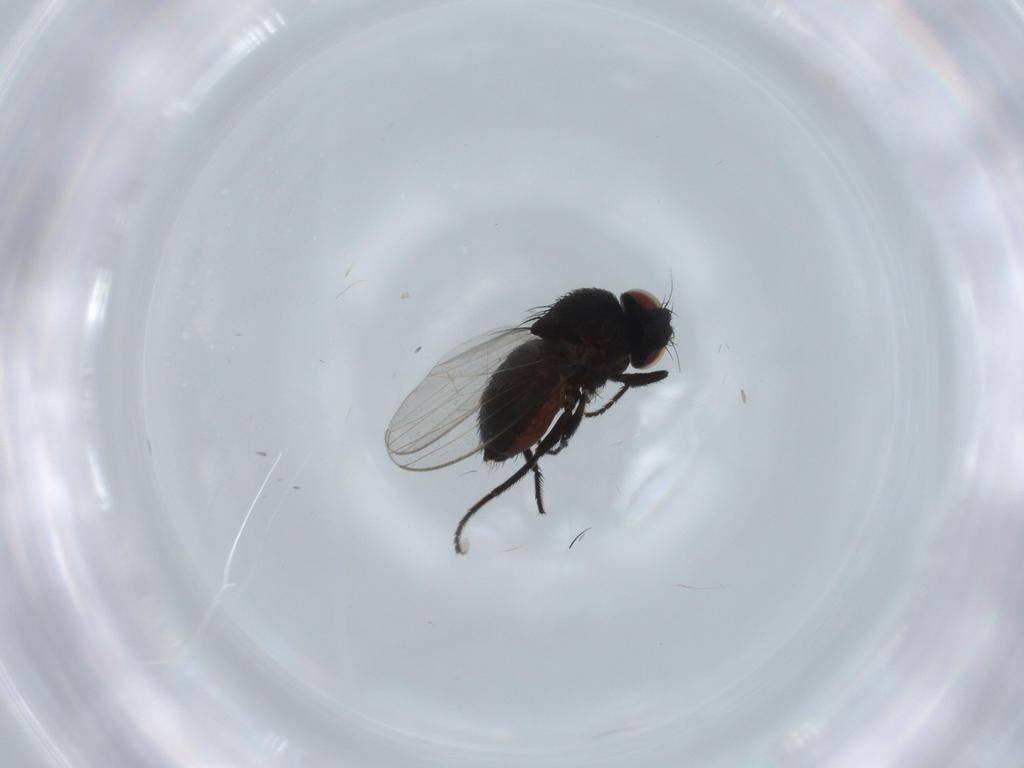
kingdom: Animalia
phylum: Arthropoda
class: Insecta
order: Diptera
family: Milichiidae
